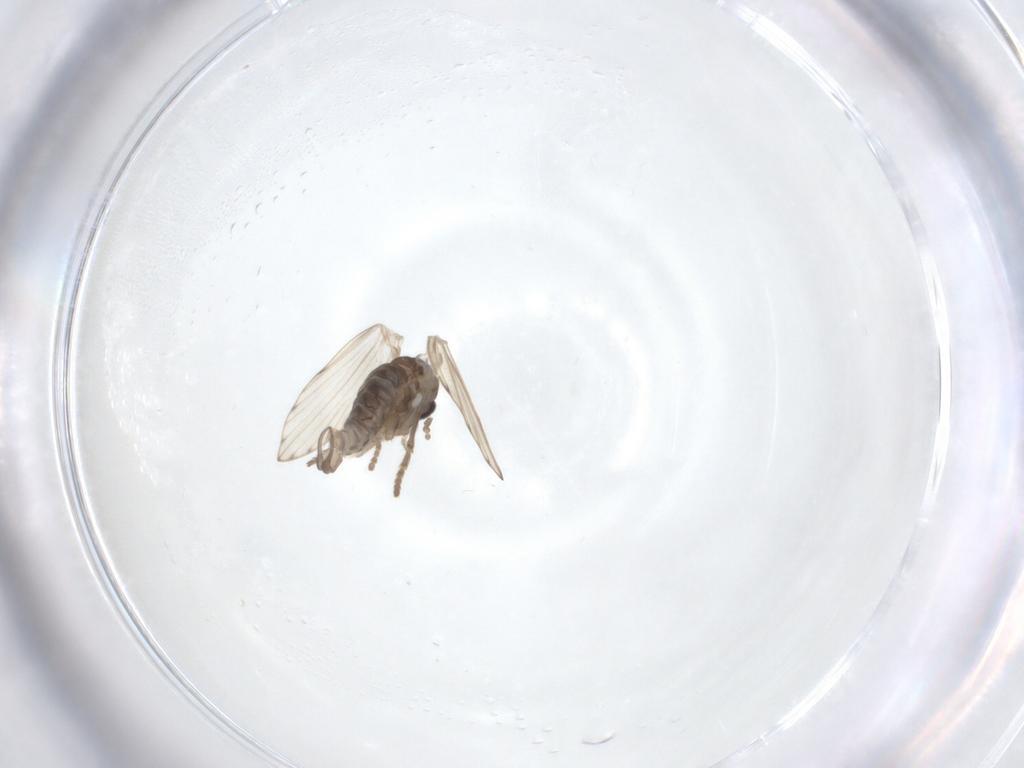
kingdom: Animalia
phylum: Arthropoda
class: Insecta
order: Diptera
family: Psychodidae
